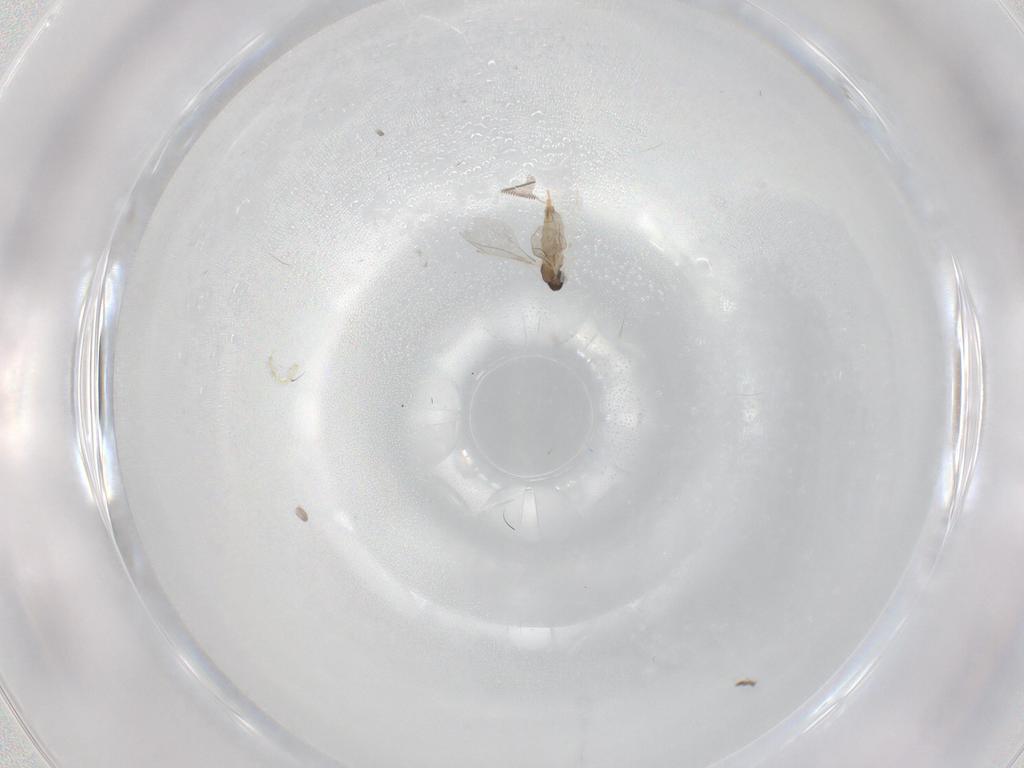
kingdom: Animalia
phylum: Arthropoda
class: Insecta
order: Diptera
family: Cecidomyiidae
